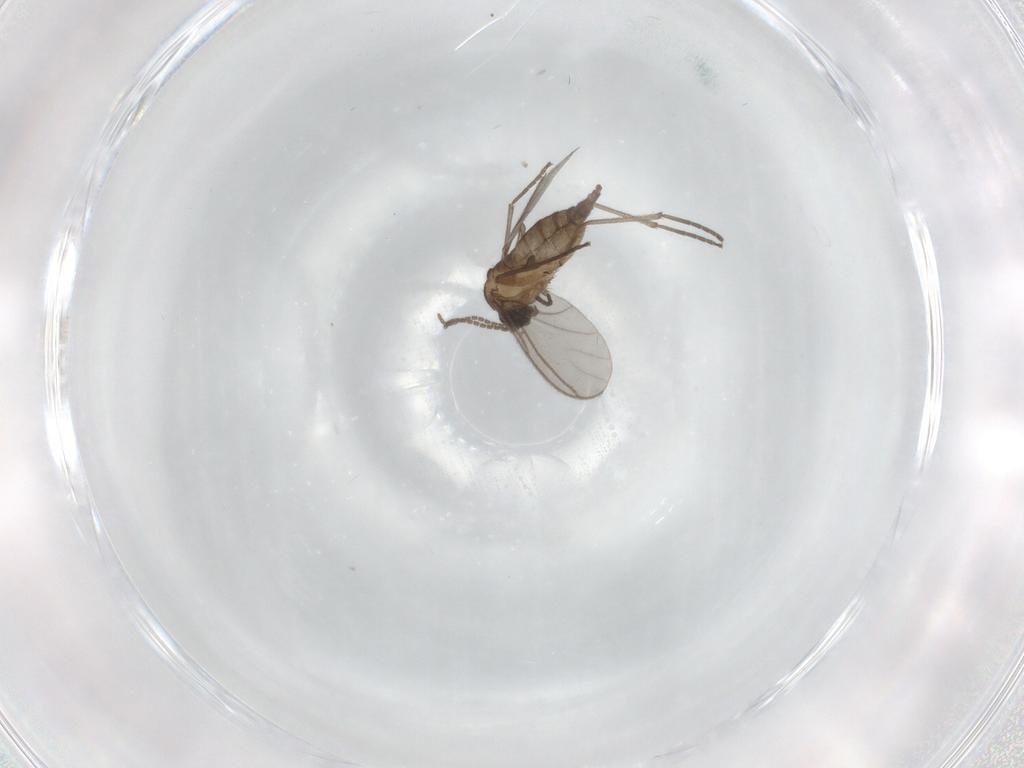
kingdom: Animalia
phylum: Arthropoda
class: Insecta
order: Diptera
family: Sciaridae
